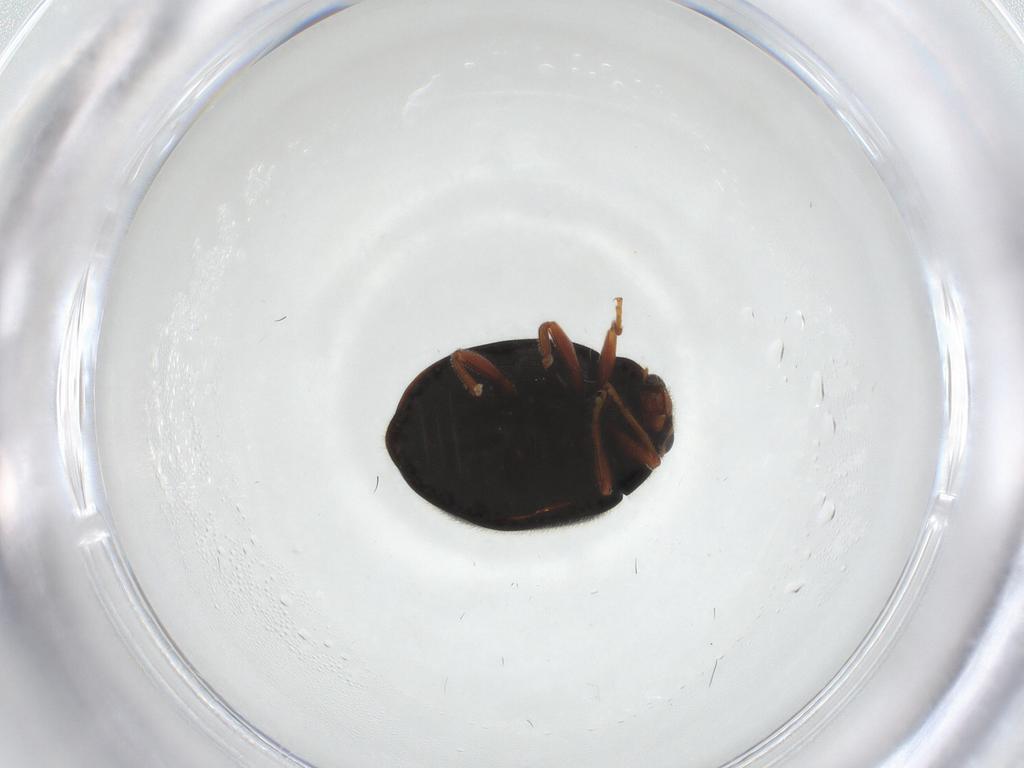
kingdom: Animalia
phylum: Arthropoda
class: Insecta
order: Coleoptera
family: Coccinellidae
